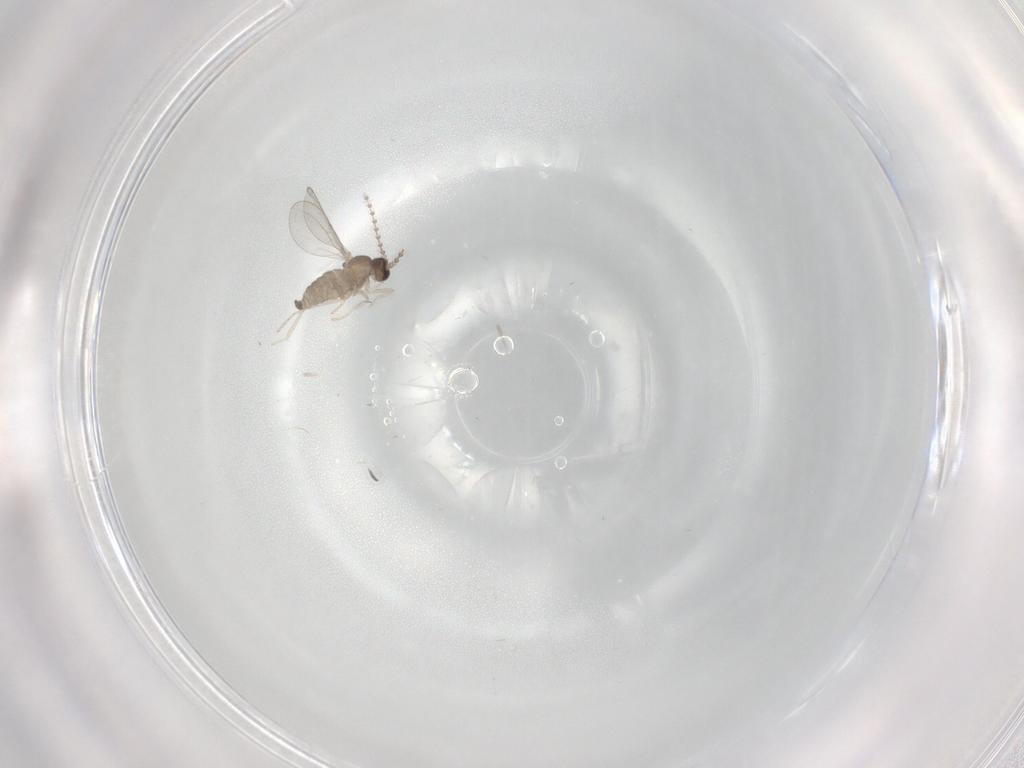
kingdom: Animalia
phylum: Arthropoda
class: Insecta
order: Diptera
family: Cecidomyiidae
